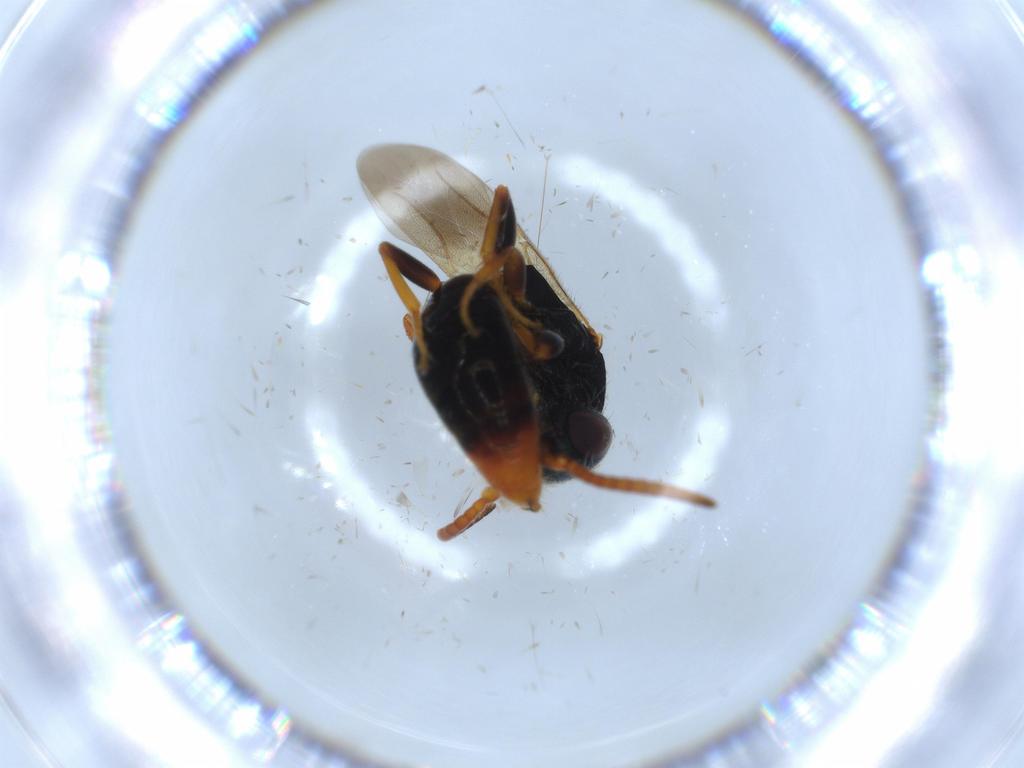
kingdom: Animalia
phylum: Arthropoda
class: Insecta
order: Hymenoptera
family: Bethylidae
